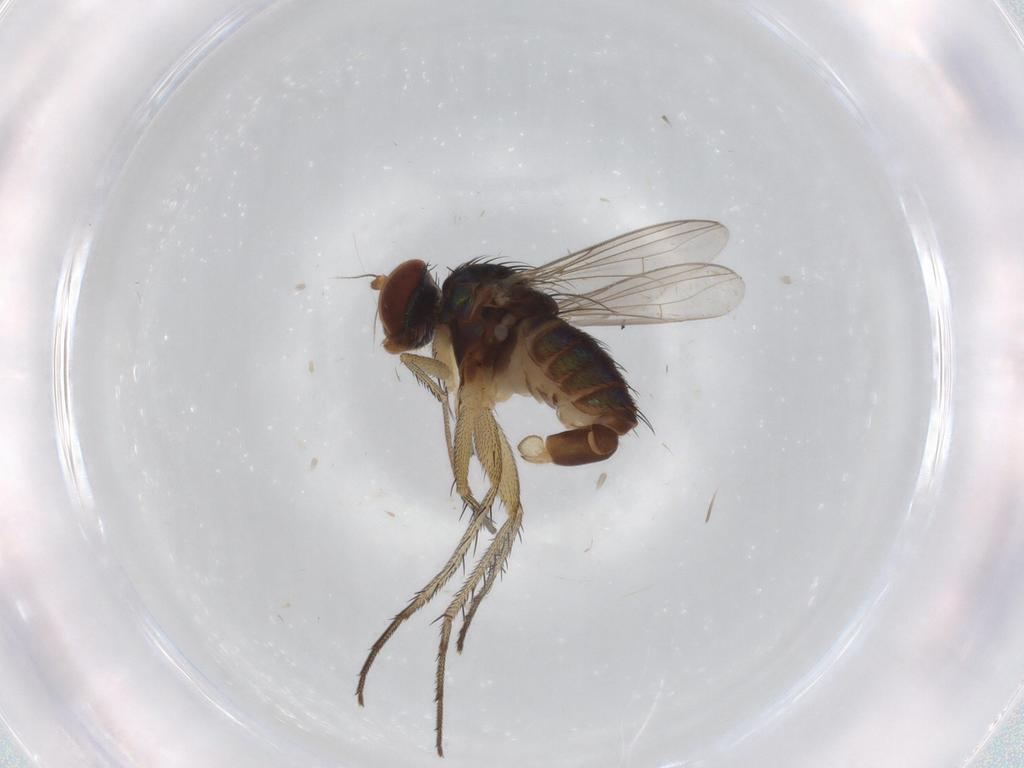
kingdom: Animalia
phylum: Arthropoda
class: Insecta
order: Diptera
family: Dolichopodidae
